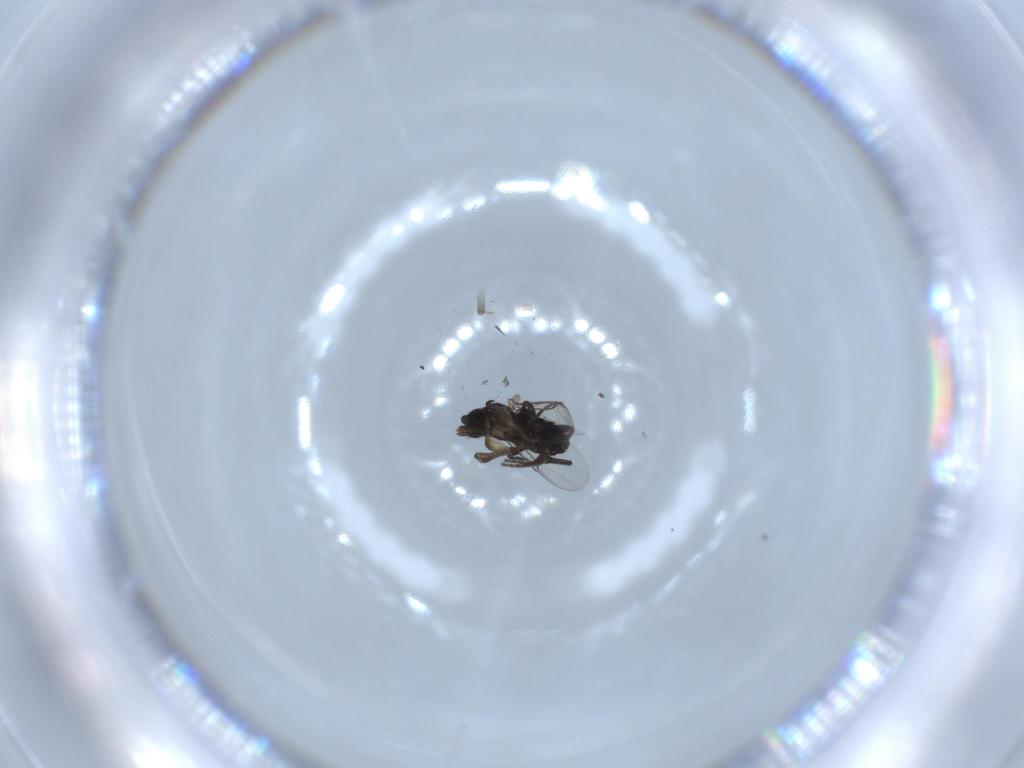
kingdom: Animalia
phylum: Arthropoda
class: Insecta
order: Diptera
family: Phoridae
